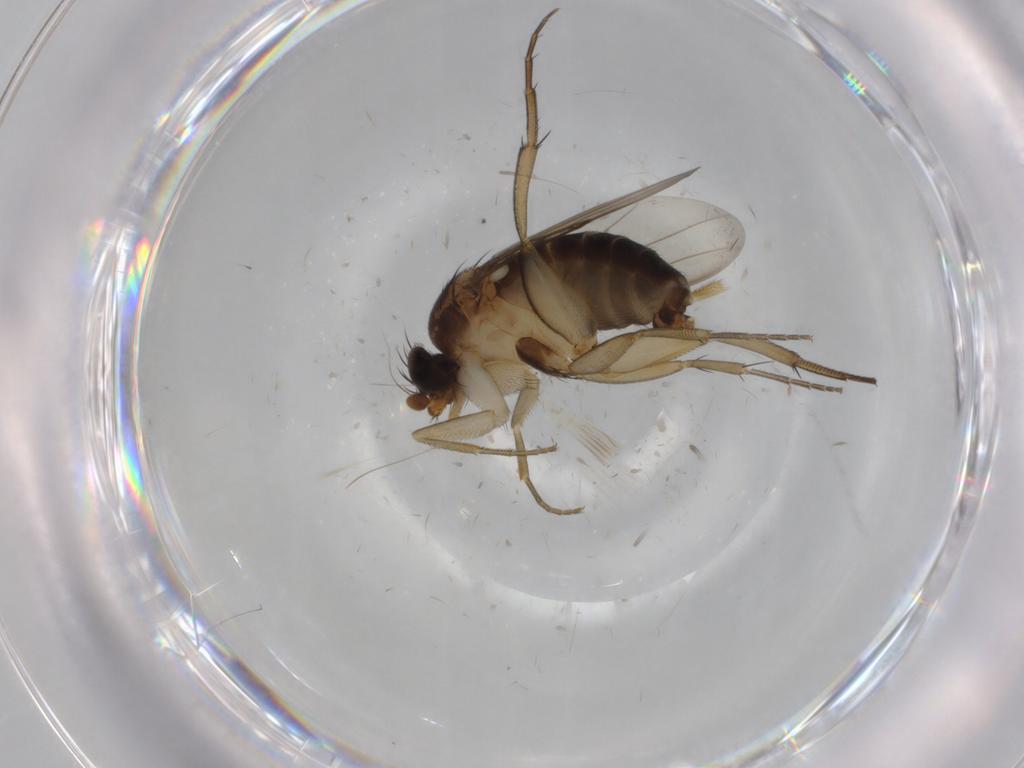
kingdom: Animalia
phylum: Arthropoda
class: Insecta
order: Diptera
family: Cecidomyiidae
